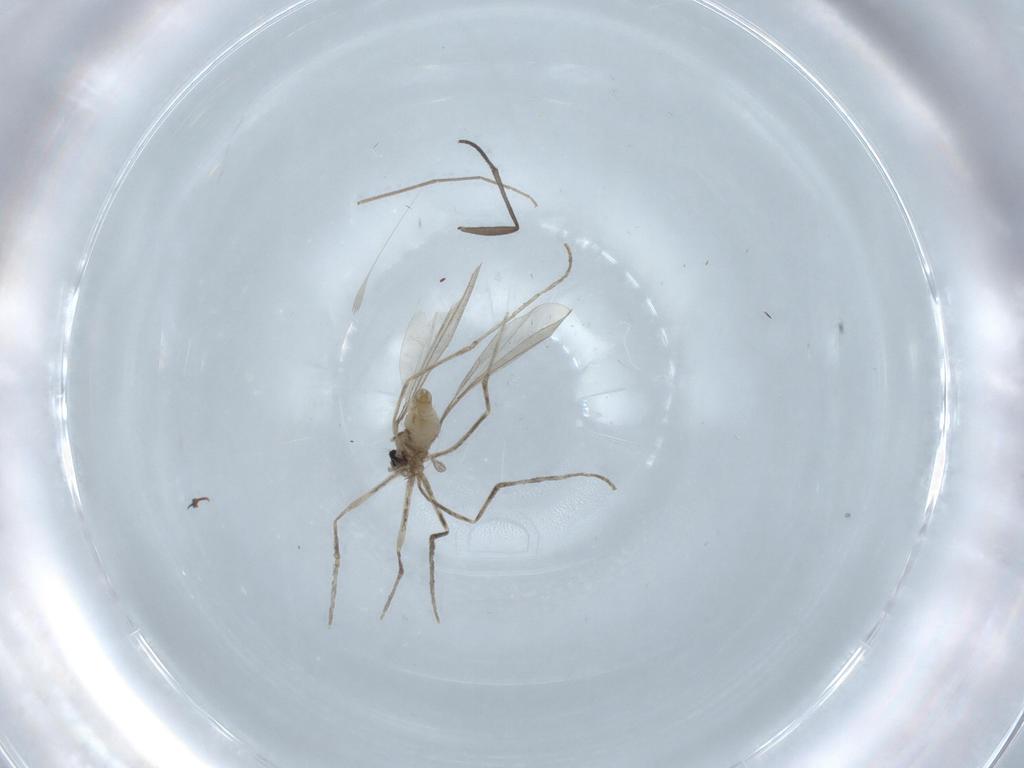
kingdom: Animalia
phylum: Arthropoda
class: Insecta
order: Diptera
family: Cecidomyiidae
